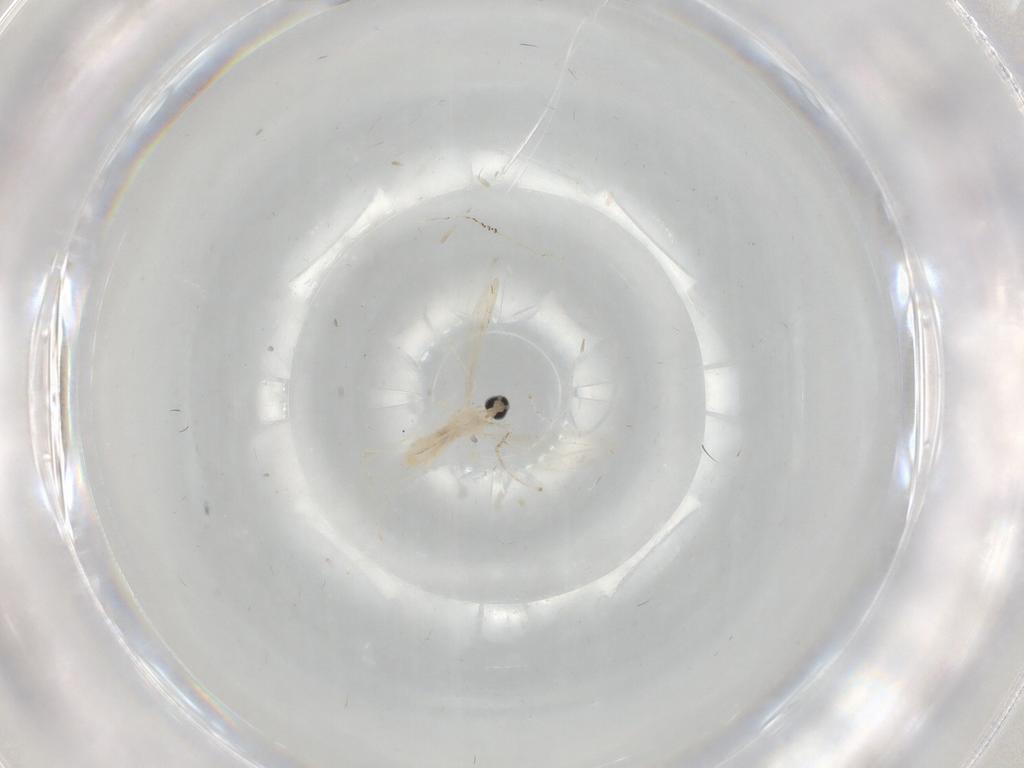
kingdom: Animalia
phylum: Arthropoda
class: Insecta
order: Diptera
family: Cecidomyiidae
